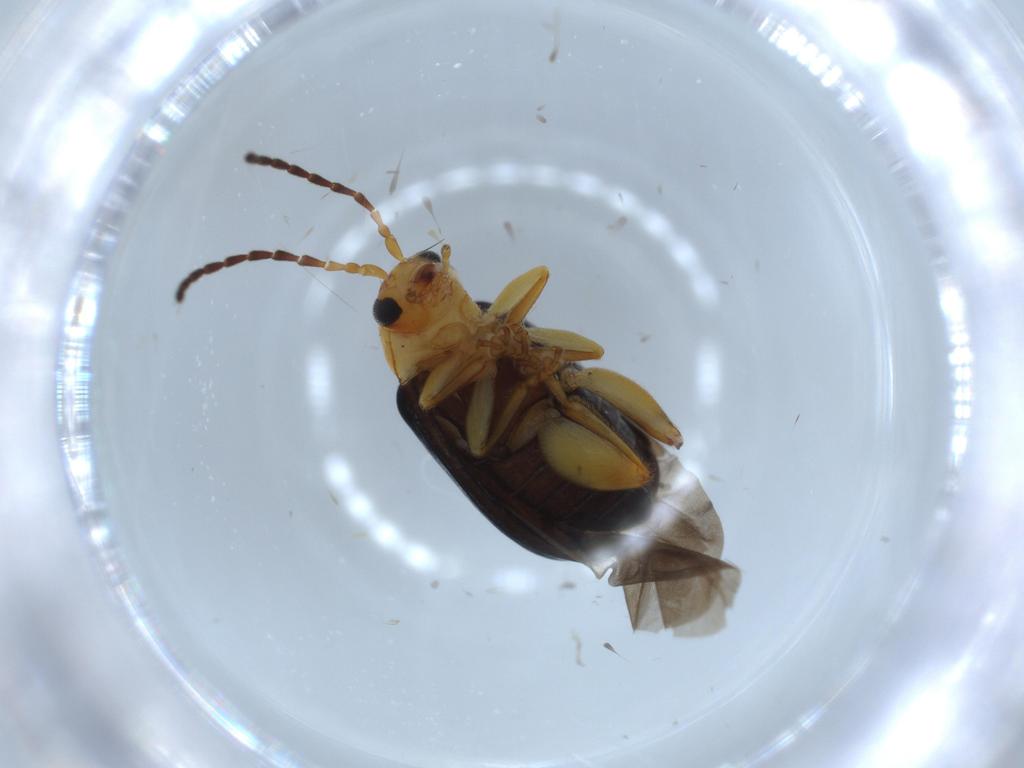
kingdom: Animalia
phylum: Arthropoda
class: Insecta
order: Coleoptera
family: Chrysomelidae
